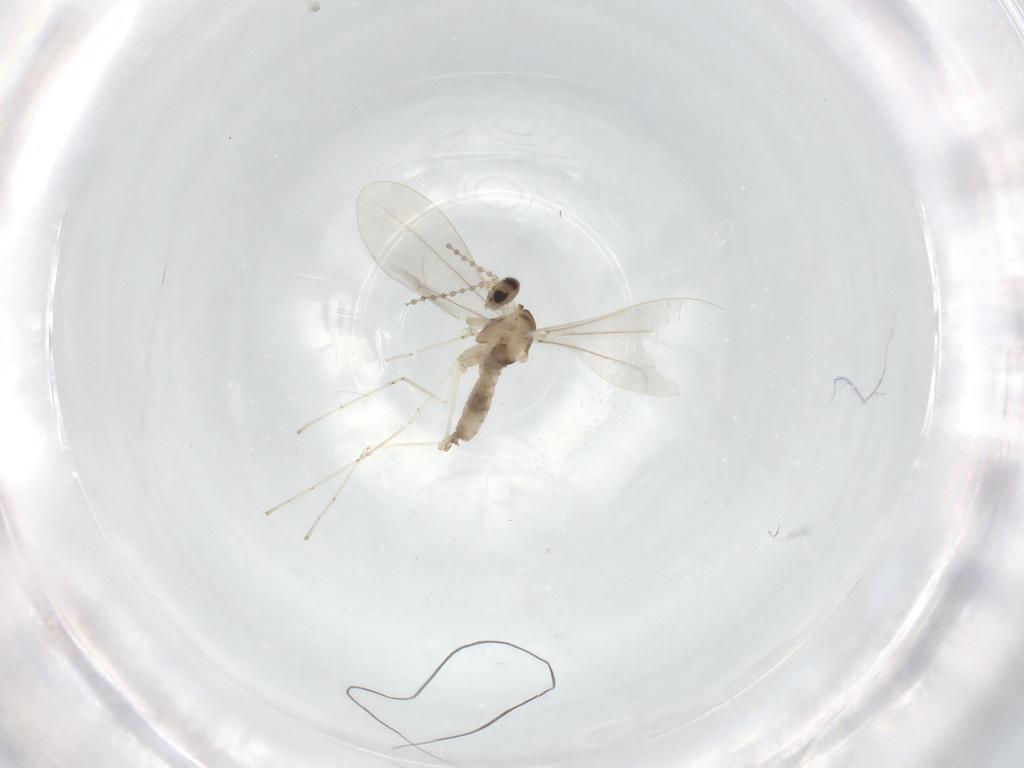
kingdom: Animalia
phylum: Arthropoda
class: Insecta
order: Diptera
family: Cecidomyiidae
